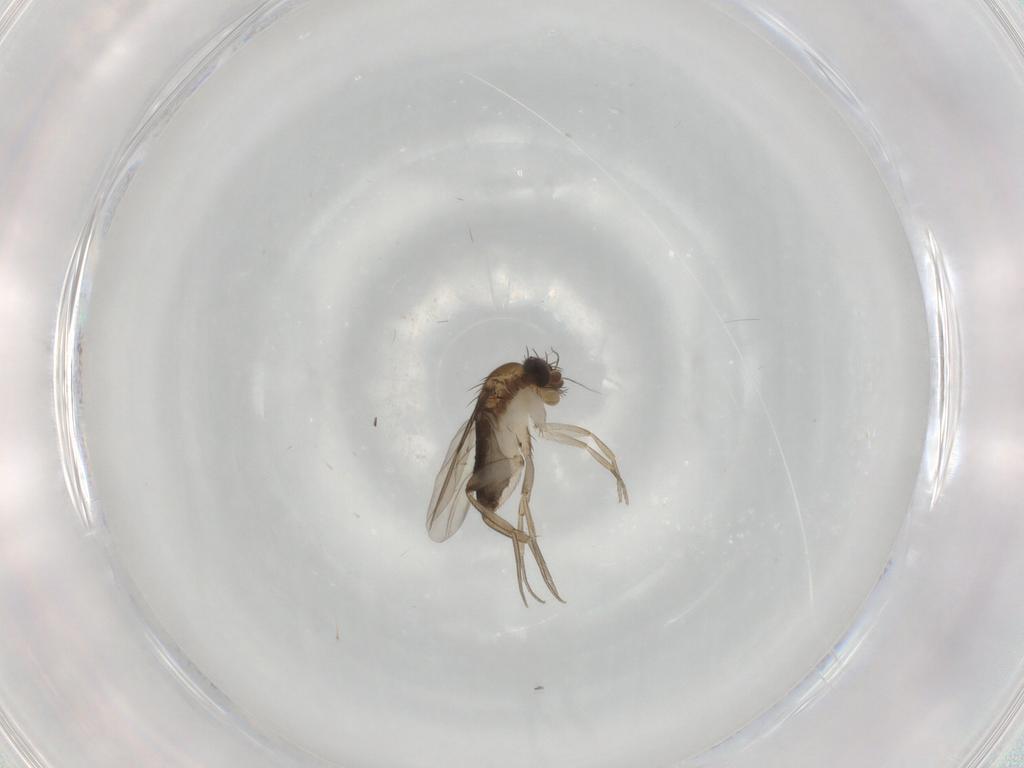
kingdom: Animalia
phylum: Arthropoda
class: Insecta
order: Diptera
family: Phoridae
